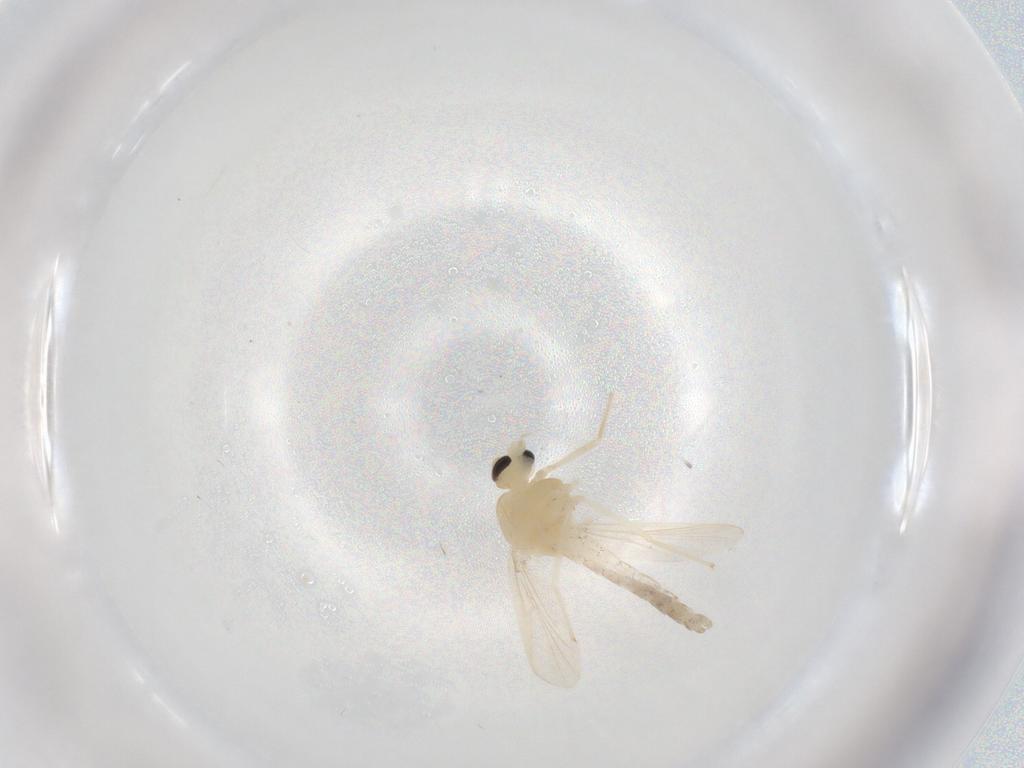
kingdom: Animalia
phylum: Arthropoda
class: Insecta
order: Diptera
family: Chironomidae
